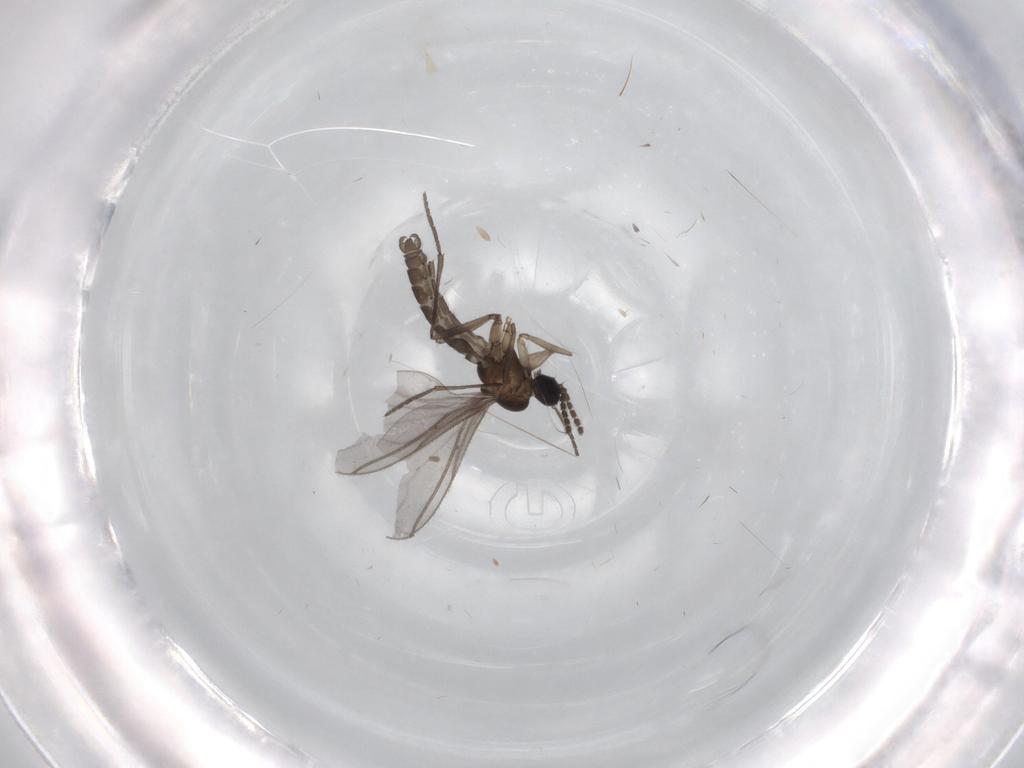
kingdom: Animalia
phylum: Arthropoda
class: Insecta
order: Diptera
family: Sciaridae
